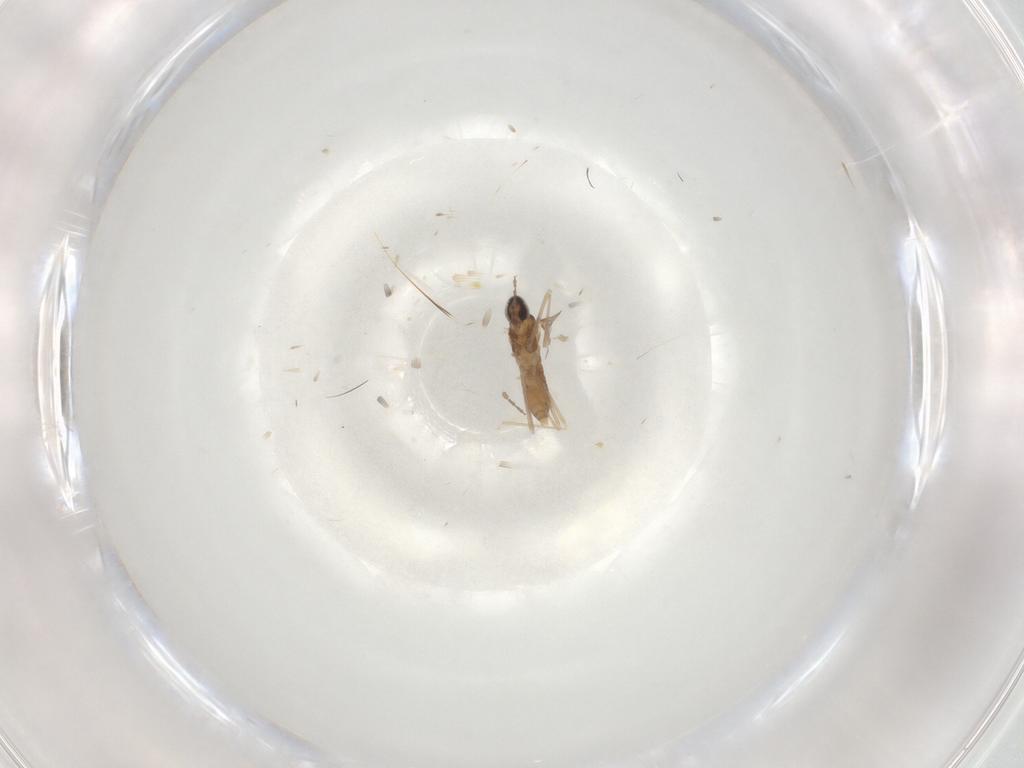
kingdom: Animalia
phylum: Arthropoda
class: Insecta
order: Diptera
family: Cecidomyiidae
